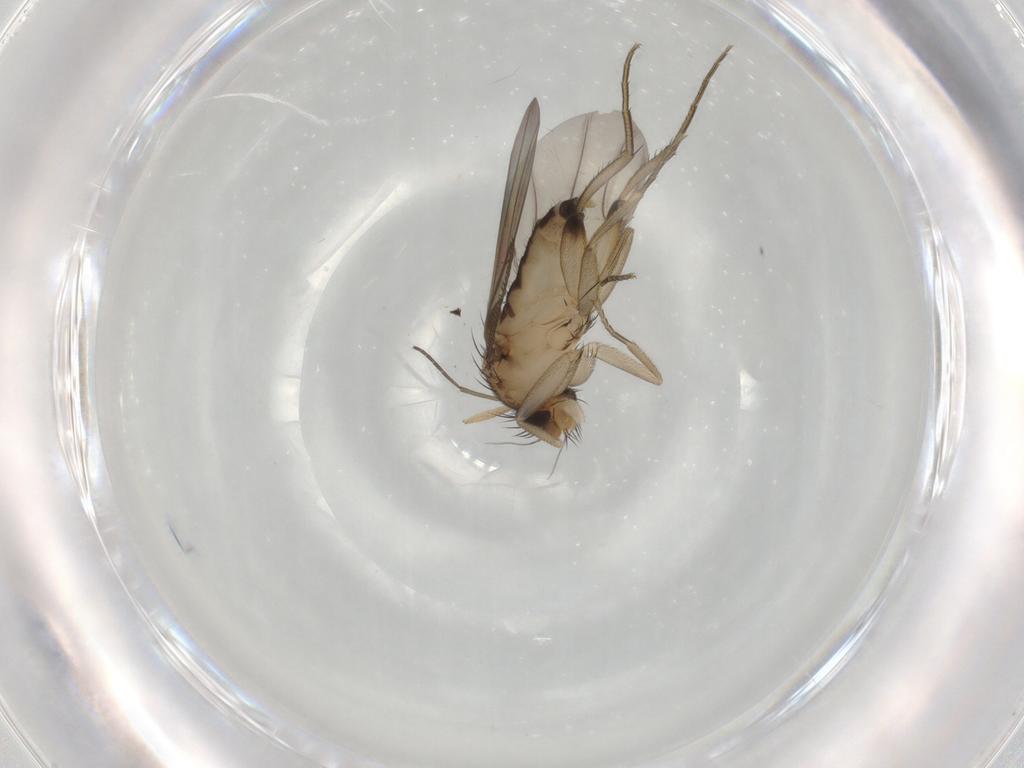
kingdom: Animalia
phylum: Arthropoda
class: Insecta
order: Diptera
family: Phoridae
